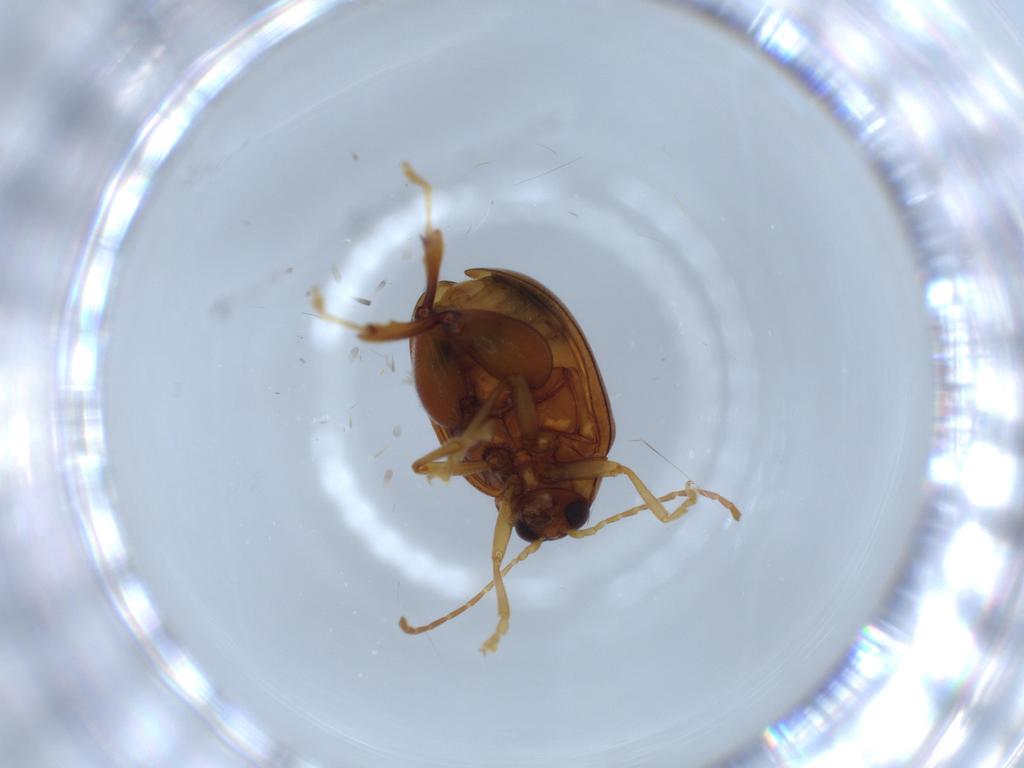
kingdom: Animalia
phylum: Arthropoda
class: Insecta
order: Coleoptera
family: Chrysomelidae
